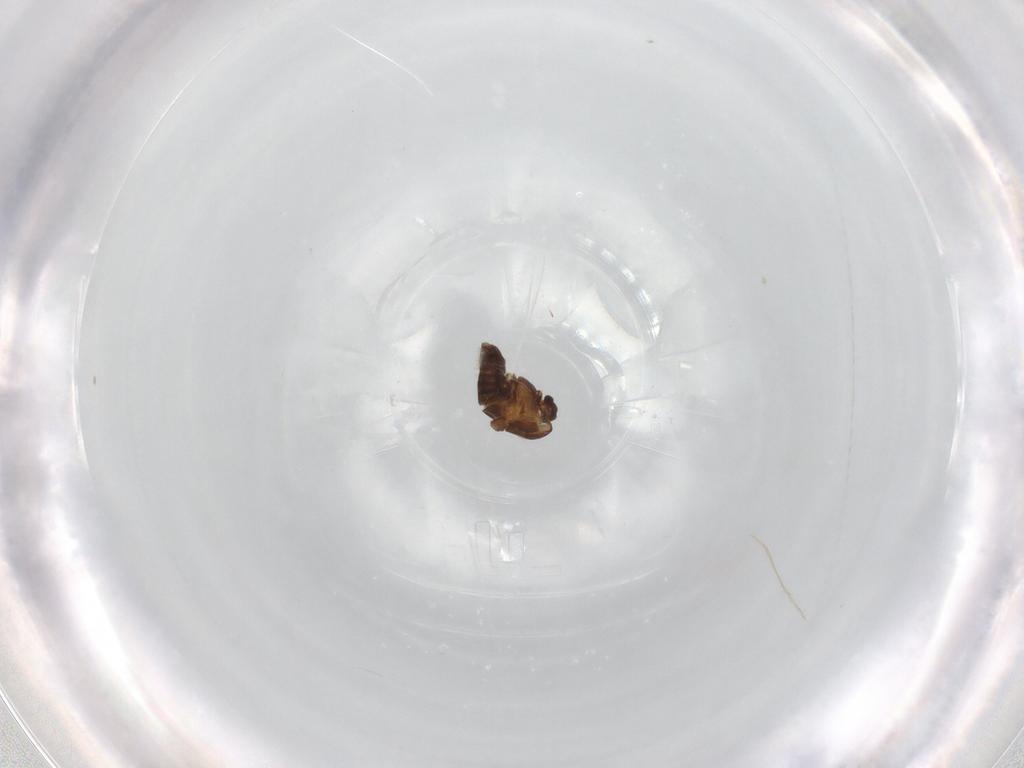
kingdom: Animalia
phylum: Arthropoda
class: Insecta
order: Diptera
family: Chironomidae
